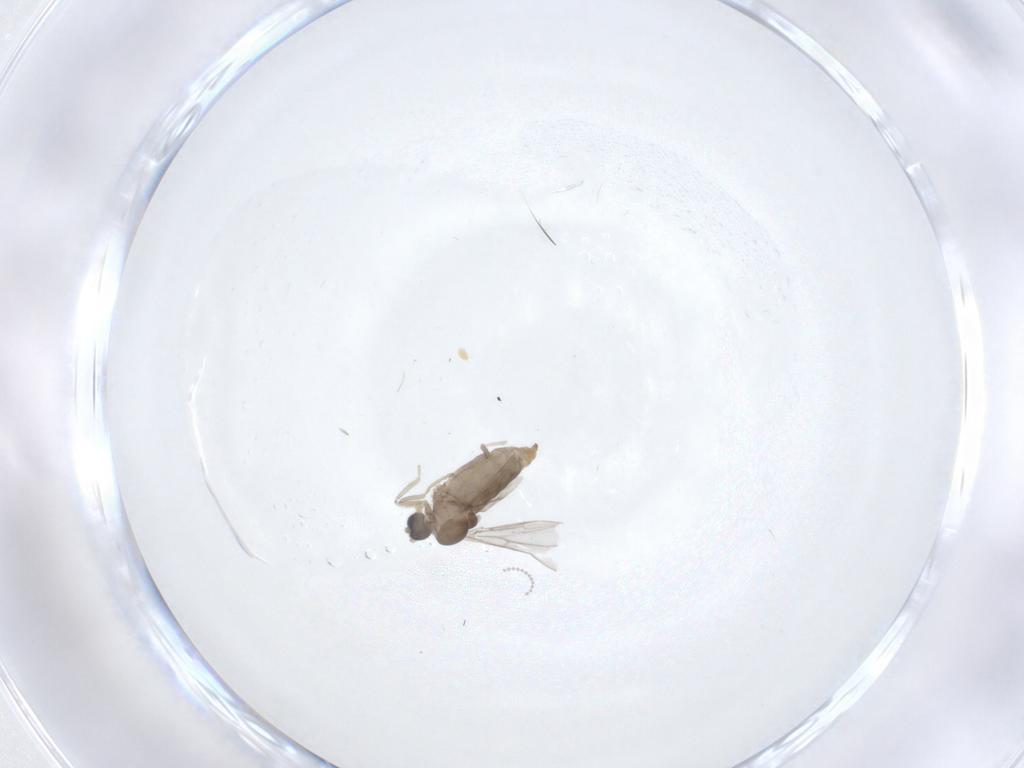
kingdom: Animalia
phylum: Arthropoda
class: Insecta
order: Diptera
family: Cecidomyiidae
